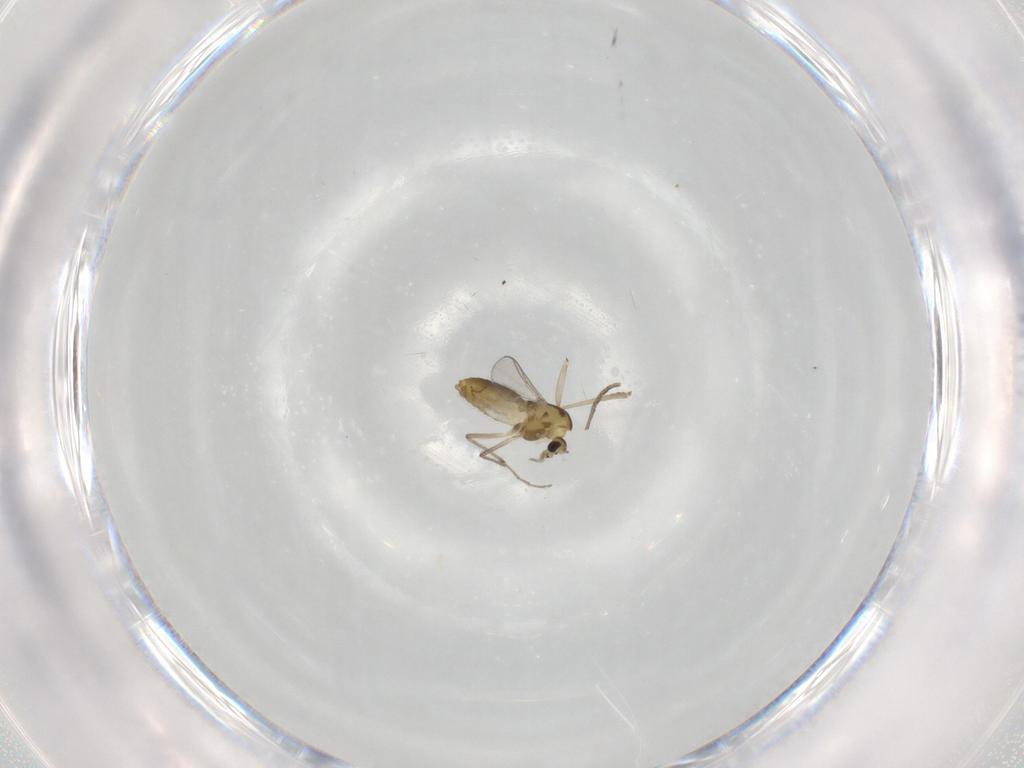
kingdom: Animalia
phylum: Arthropoda
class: Insecta
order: Diptera
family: Chironomidae
